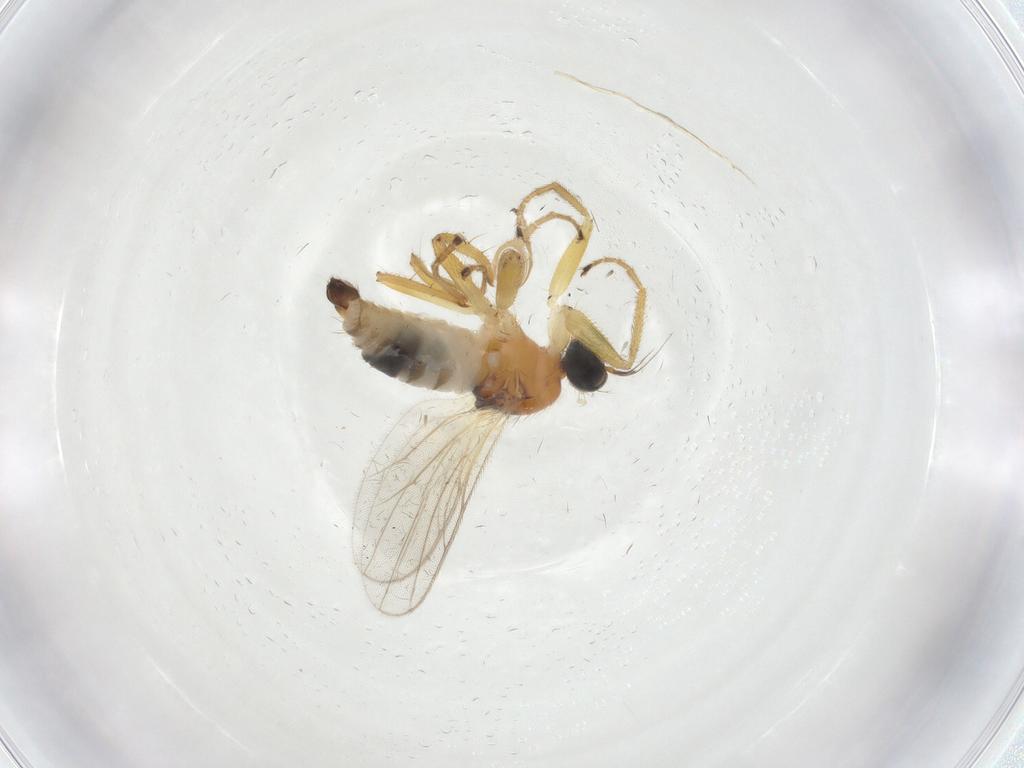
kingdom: Animalia
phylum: Arthropoda
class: Insecta
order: Diptera
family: Hybotidae
